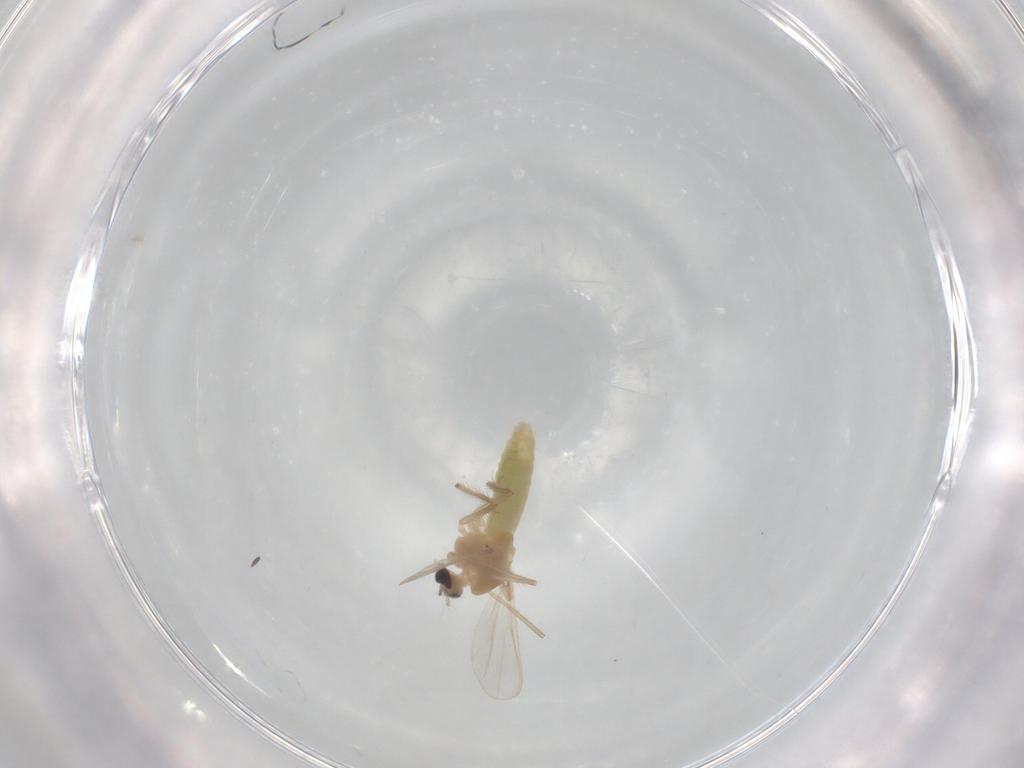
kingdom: Animalia
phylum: Arthropoda
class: Insecta
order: Diptera
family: Chironomidae
